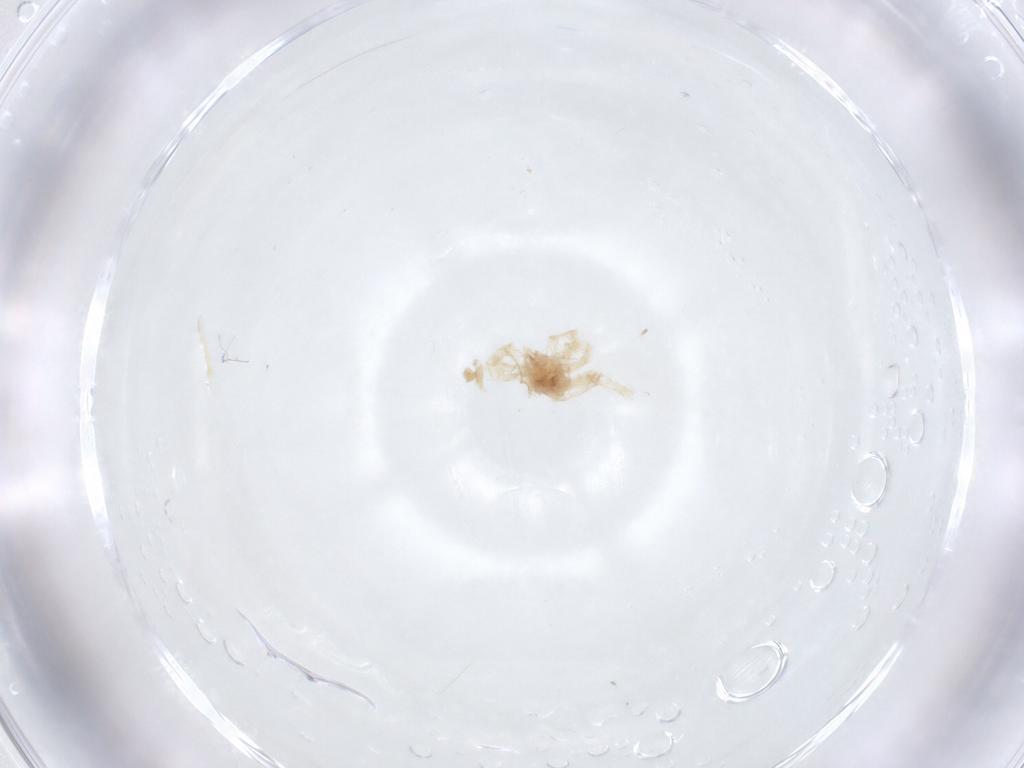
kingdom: Animalia
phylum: Arthropoda
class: Arachnida
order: Trombidiformes
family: Anystidae
